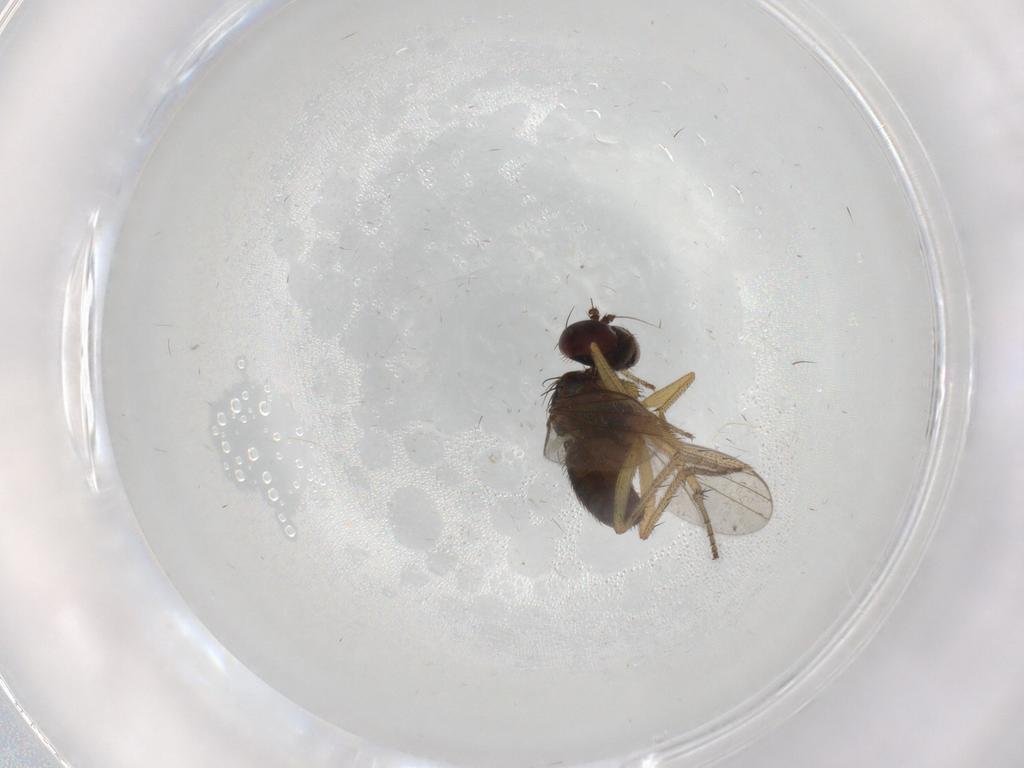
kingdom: Animalia
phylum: Arthropoda
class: Insecta
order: Diptera
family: Dolichopodidae
